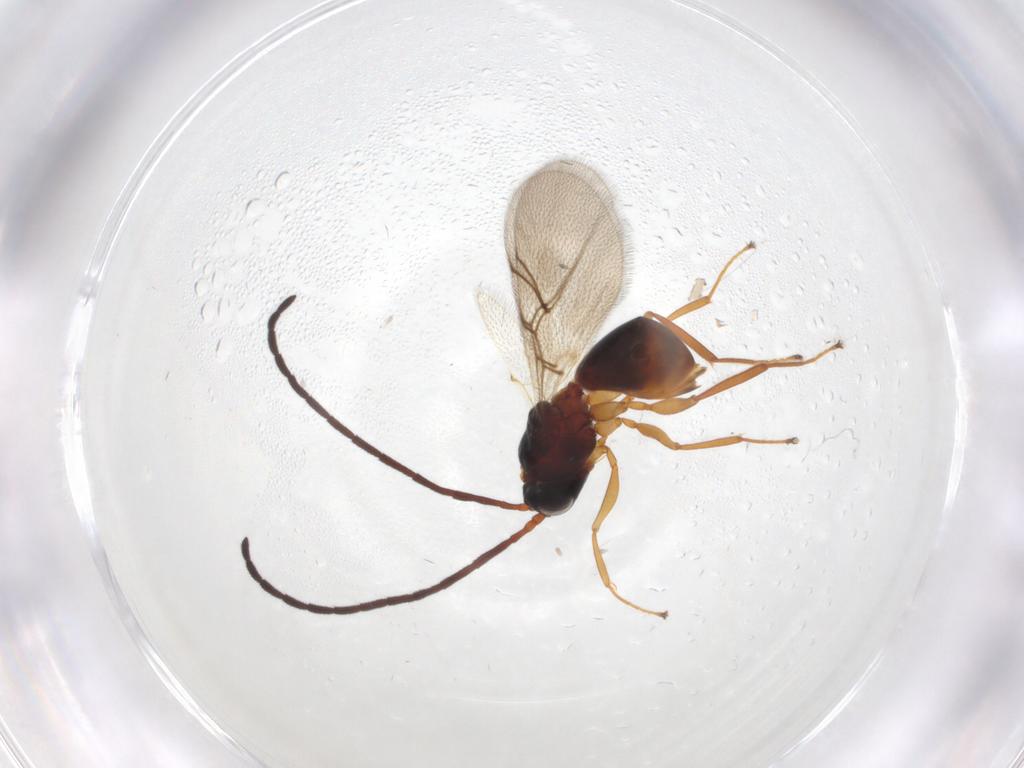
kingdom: Animalia
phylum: Arthropoda
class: Insecta
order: Hymenoptera
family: Figitidae
